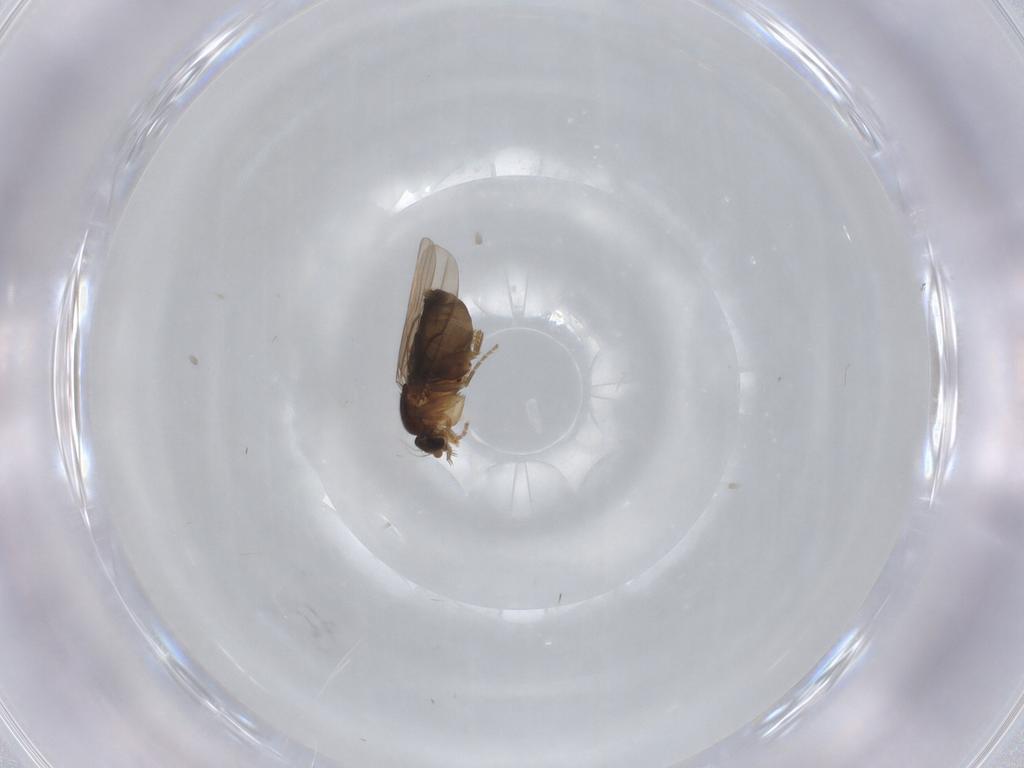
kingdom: Animalia
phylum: Arthropoda
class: Insecta
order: Diptera
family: Phoridae
